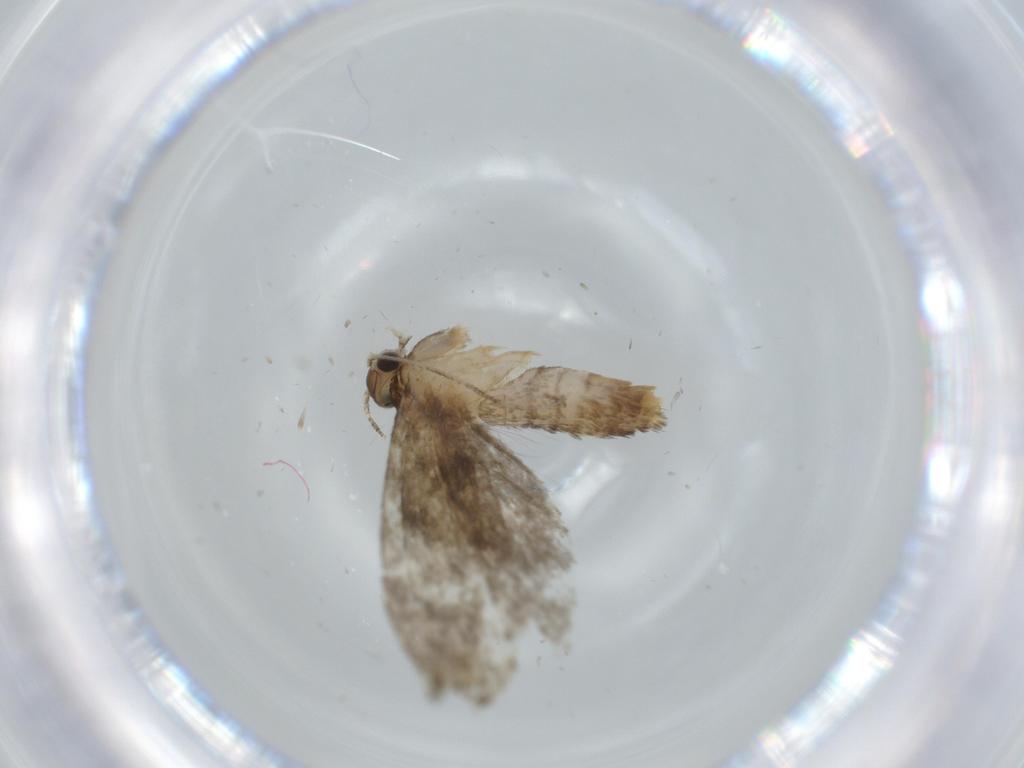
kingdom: Animalia
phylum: Arthropoda
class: Insecta
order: Lepidoptera
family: Tineidae
